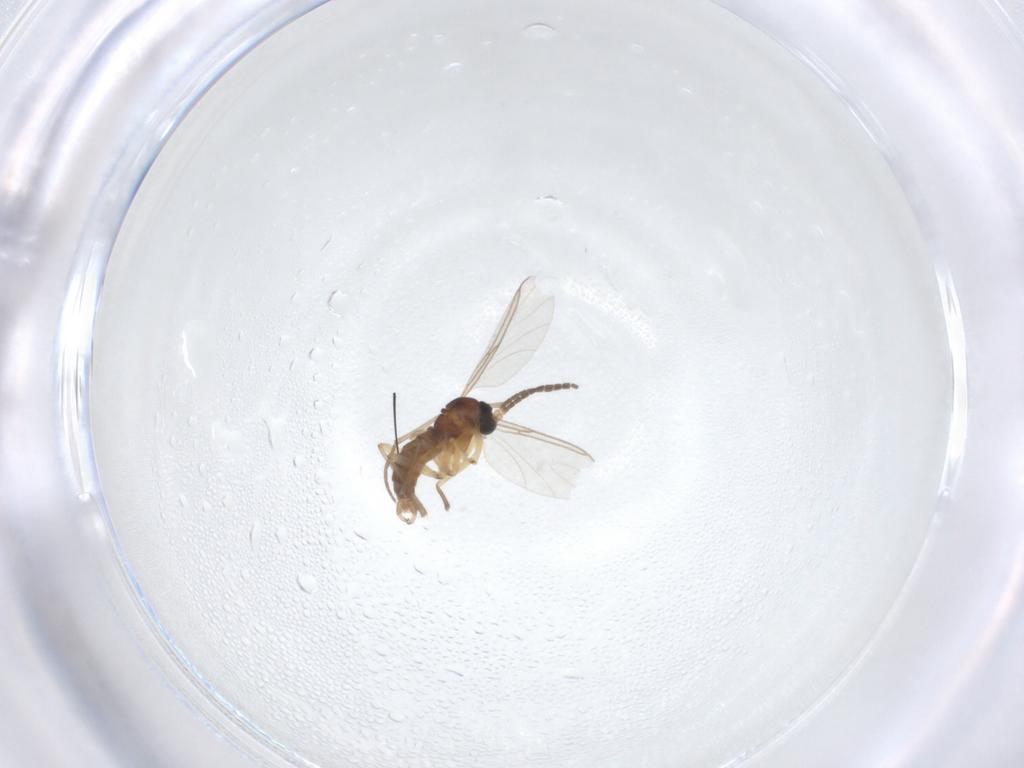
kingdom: Animalia
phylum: Arthropoda
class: Insecta
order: Diptera
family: Sciaridae
